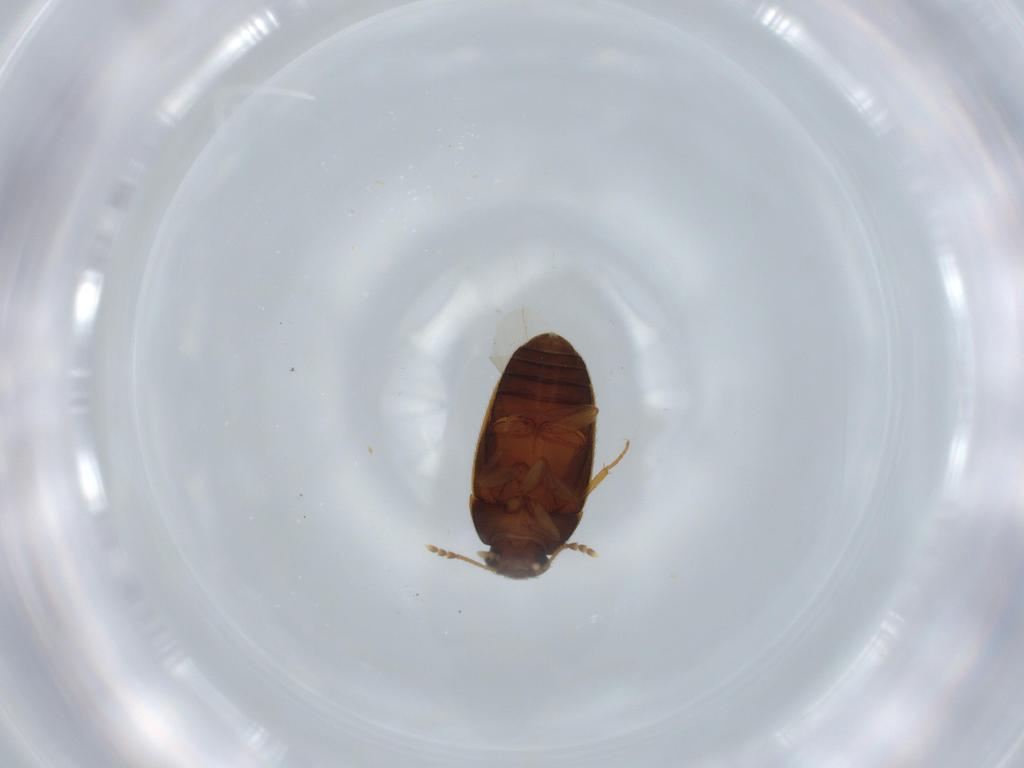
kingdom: Animalia
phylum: Arthropoda
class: Insecta
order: Coleoptera
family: Mycetophagidae
